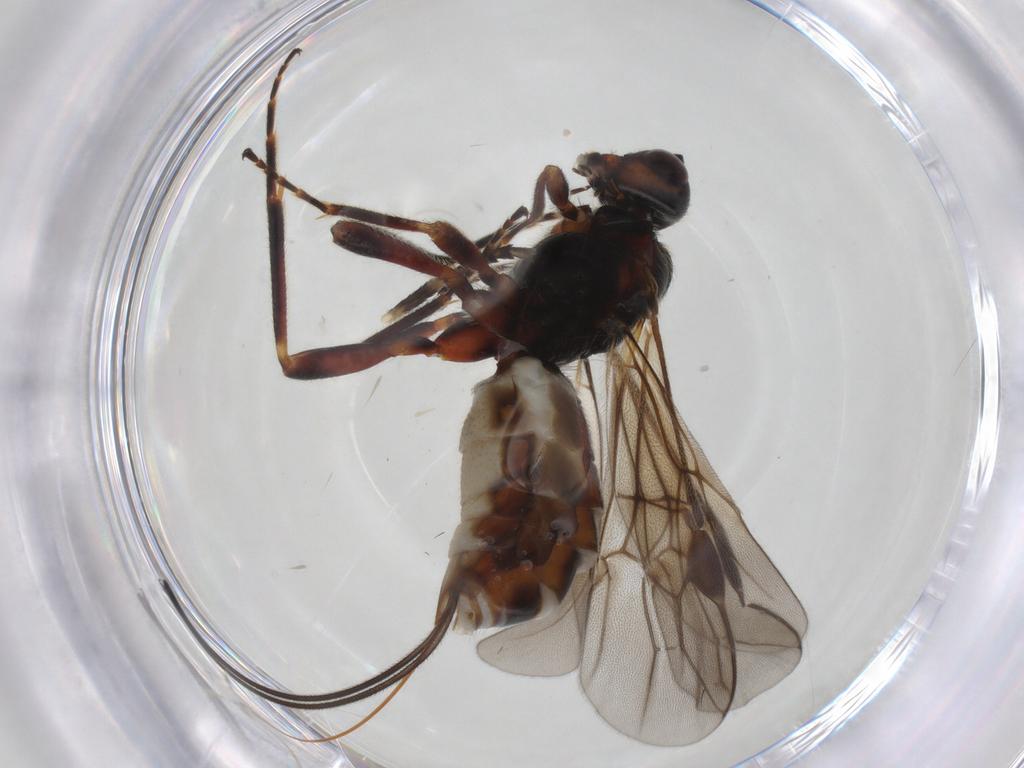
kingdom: Animalia
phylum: Arthropoda
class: Insecta
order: Hymenoptera
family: Braconidae
